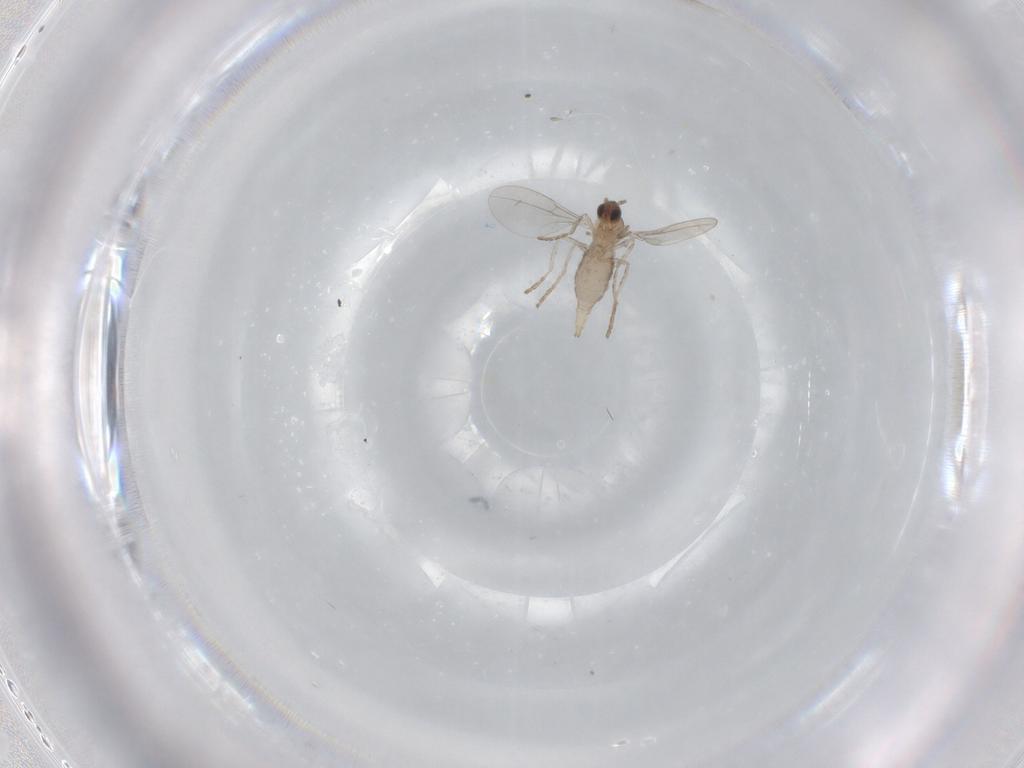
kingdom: Animalia
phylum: Arthropoda
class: Insecta
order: Diptera
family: Cecidomyiidae
